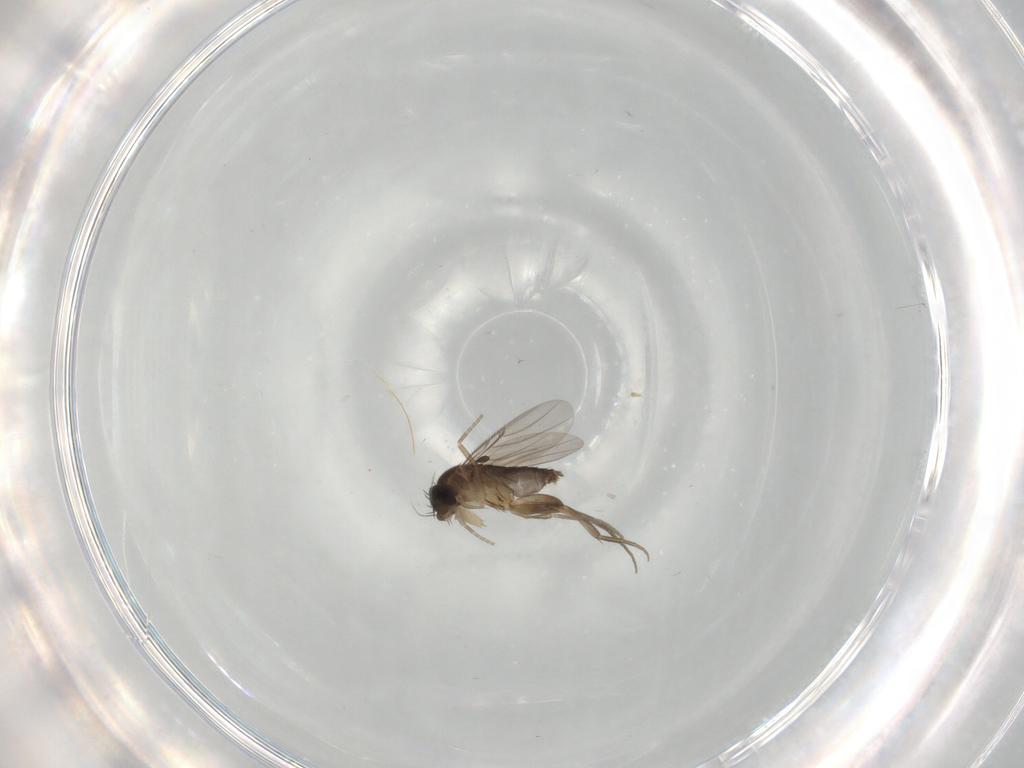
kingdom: Animalia
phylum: Arthropoda
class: Insecta
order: Diptera
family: Phoridae
